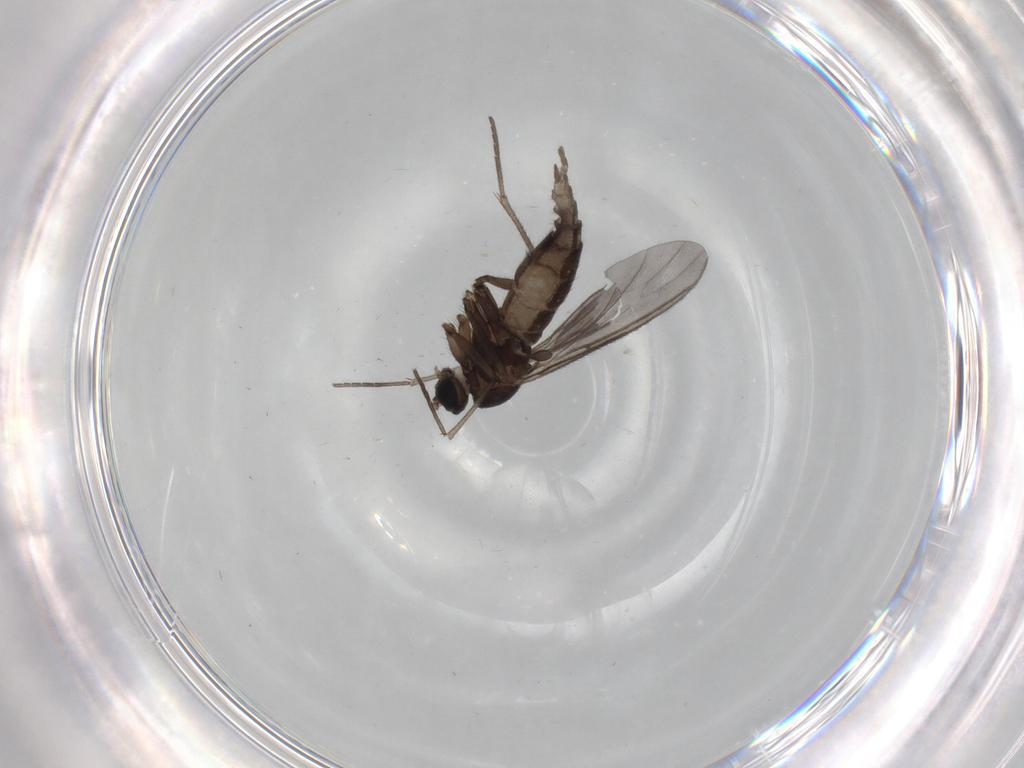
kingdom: Animalia
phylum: Arthropoda
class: Insecta
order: Diptera
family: Sciaridae
